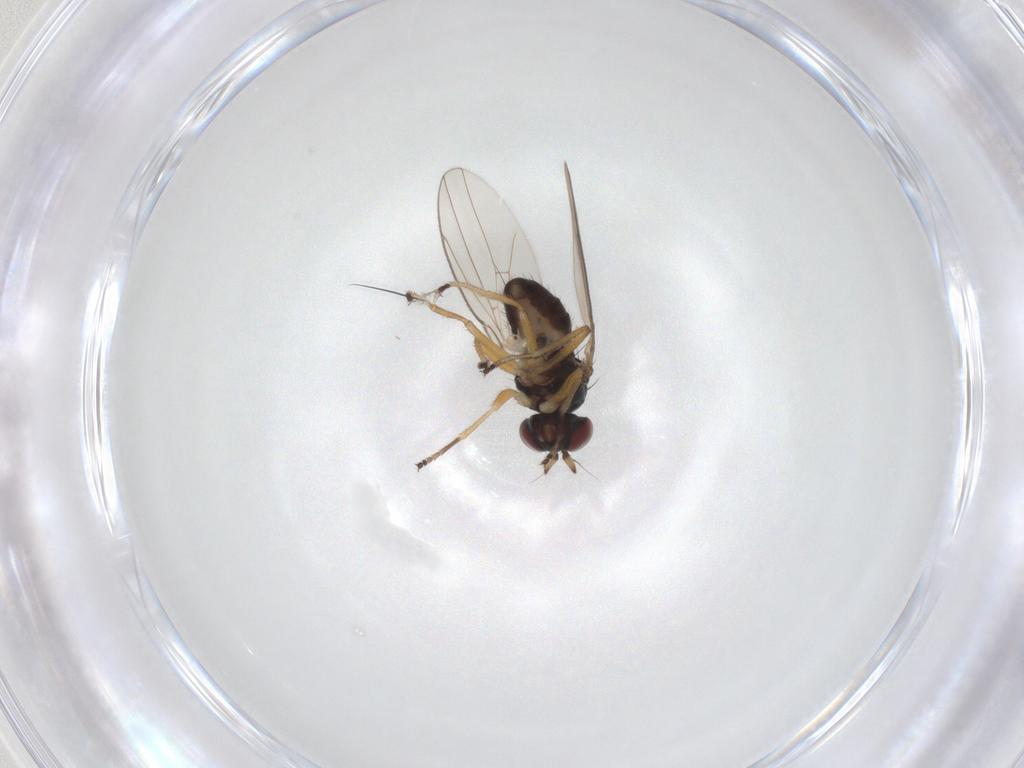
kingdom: Animalia
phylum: Arthropoda
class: Insecta
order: Diptera
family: Ephydridae
